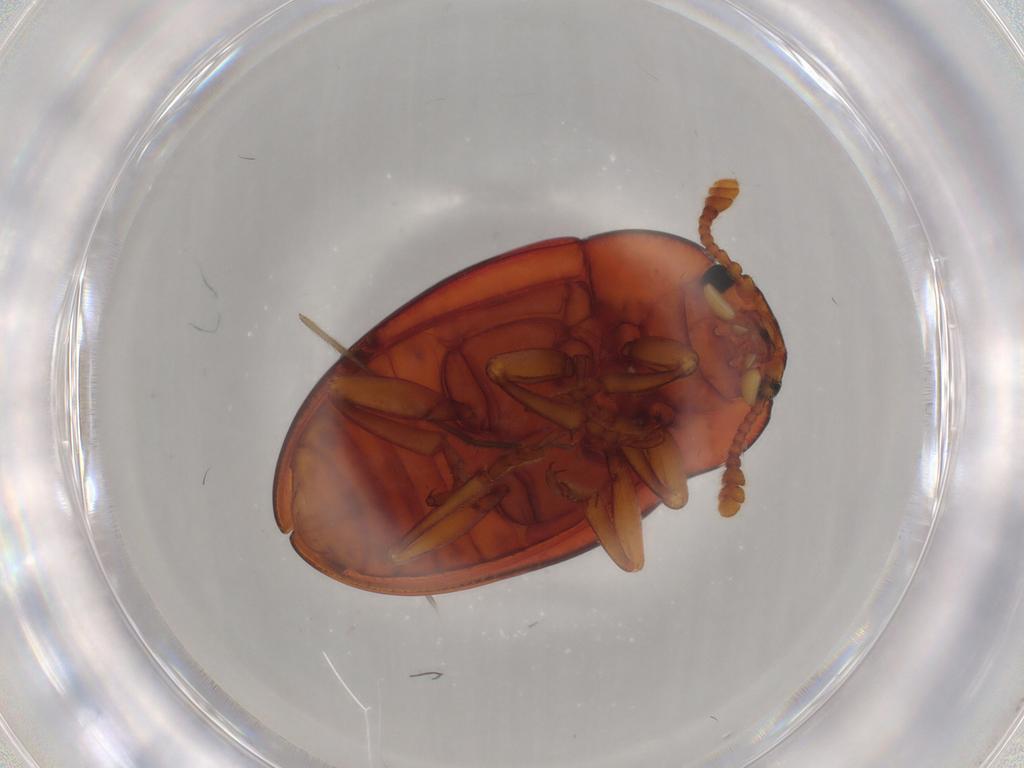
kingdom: Animalia
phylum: Arthropoda
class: Insecta
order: Coleoptera
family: Erotylidae
